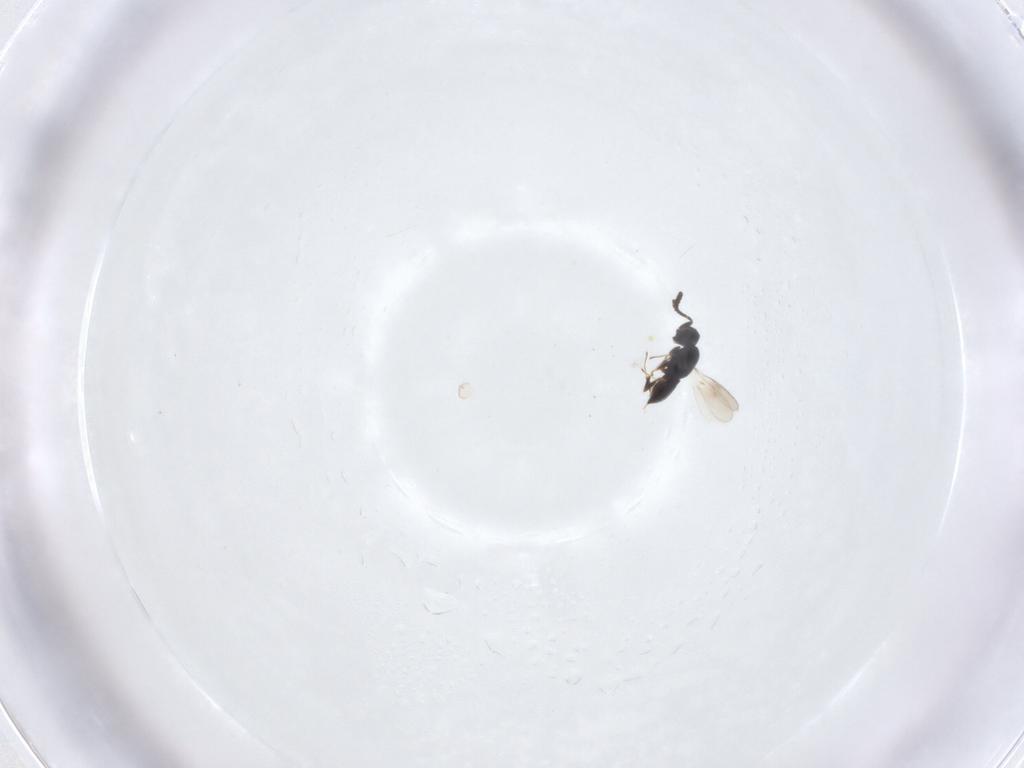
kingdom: Animalia
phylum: Arthropoda
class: Insecta
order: Hymenoptera
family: Scelionidae
